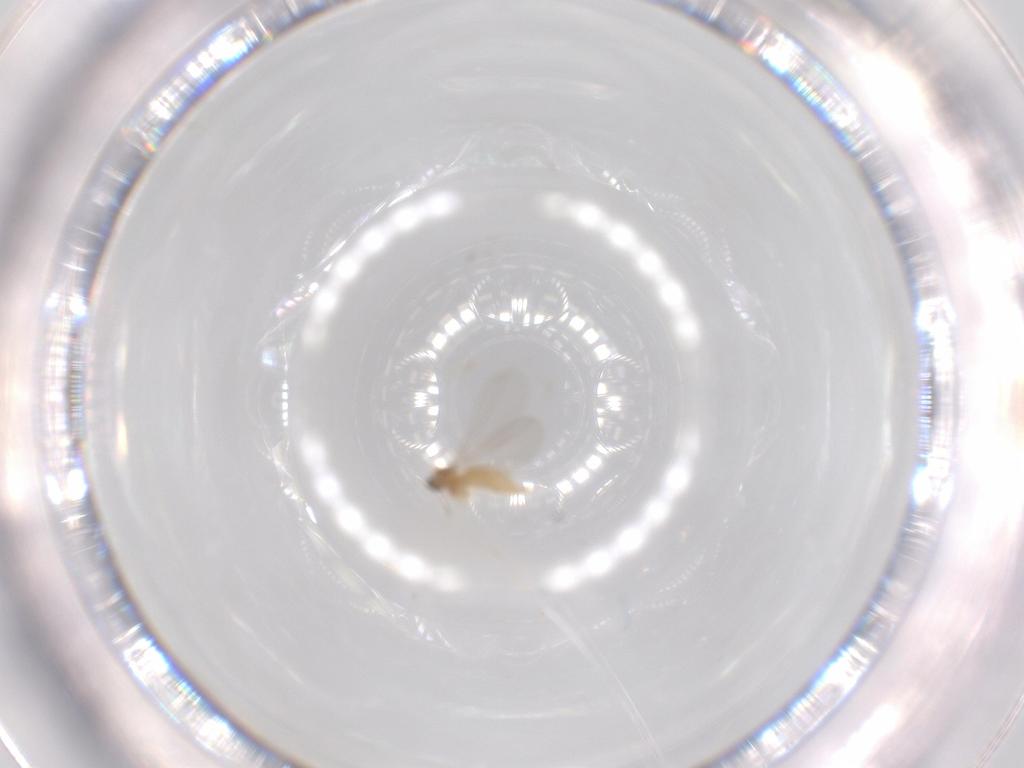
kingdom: Animalia
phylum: Arthropoda
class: Insecta
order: Diptera
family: Cecidomyiidae
